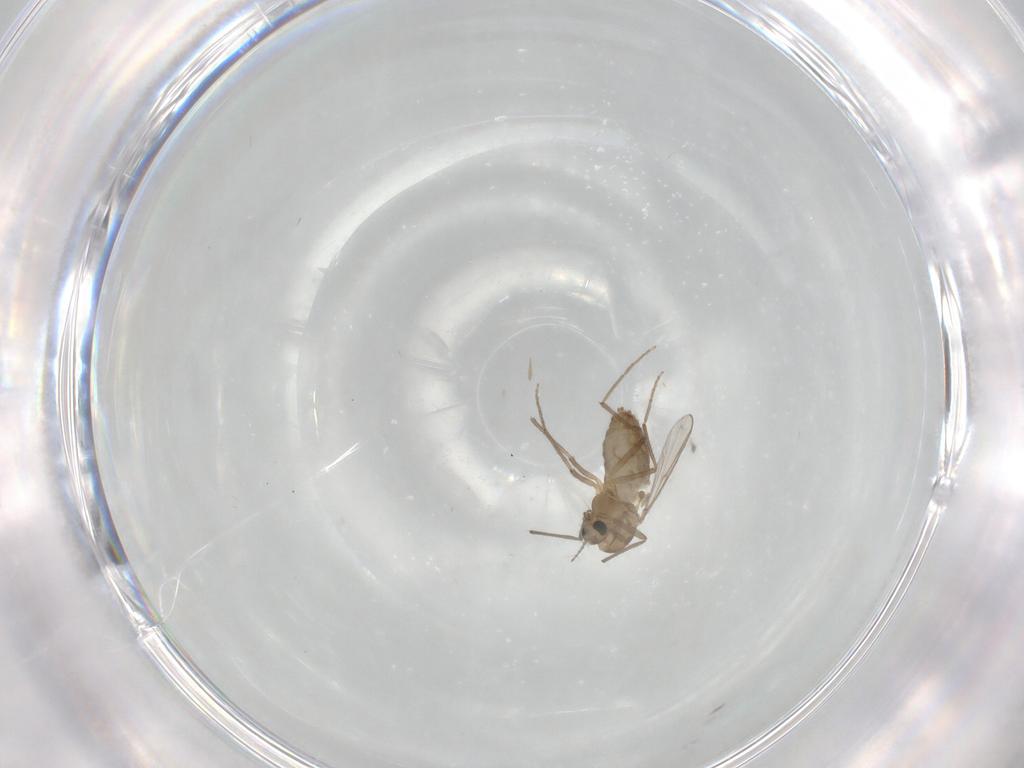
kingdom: Animalia
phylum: Arthropoda
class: Insecta
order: Diptera
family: Chironomidae
